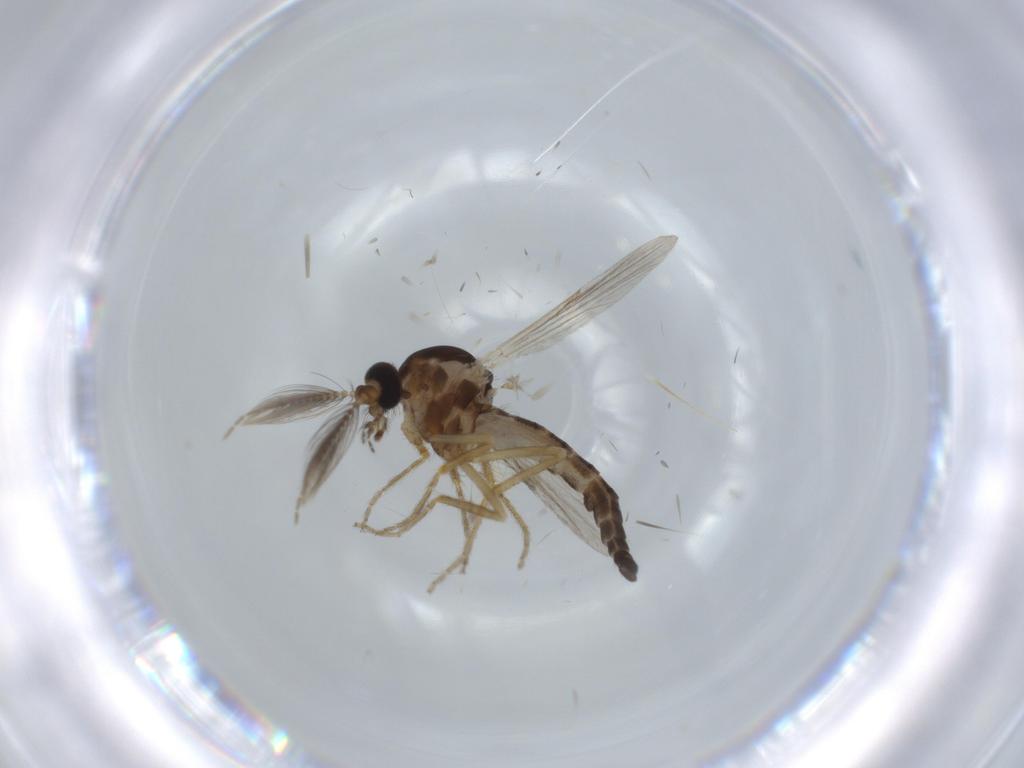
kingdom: Animalia
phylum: Arthropoda
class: Insecta
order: Diptera
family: Ceratopogonidae
